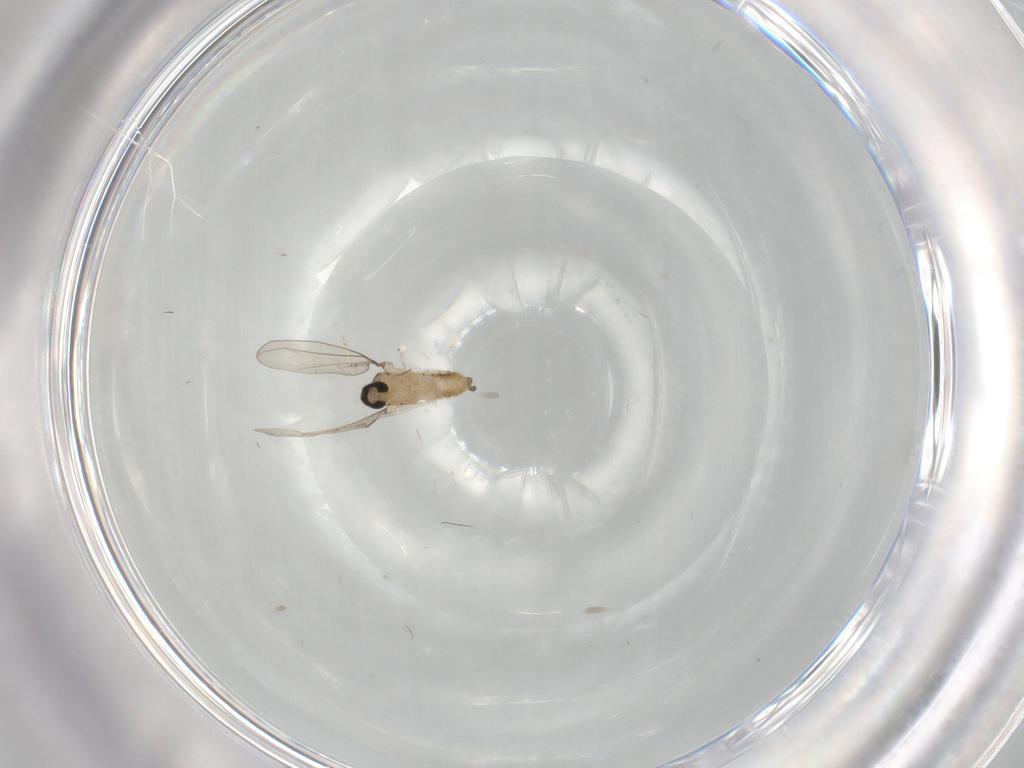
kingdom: Animalia
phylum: Arthropoda
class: Insecta
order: Diptera
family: Cecidomyiidae
